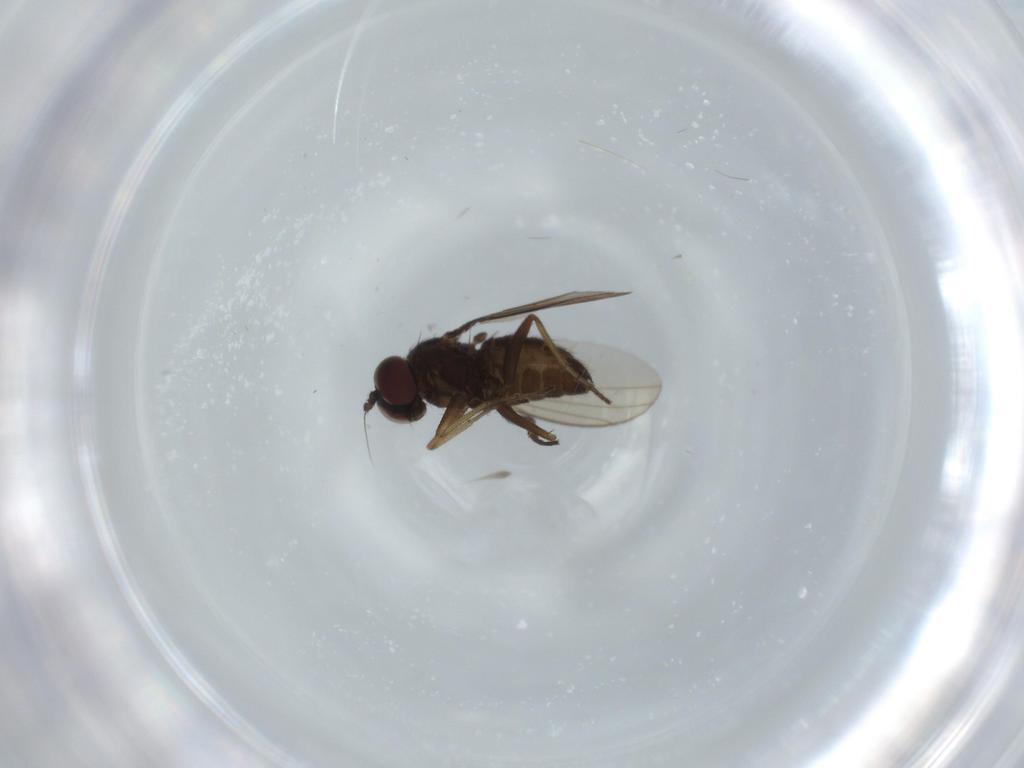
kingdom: Animalia
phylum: Arthropoda
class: Insecta
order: Diptera
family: Dolichopodidae
